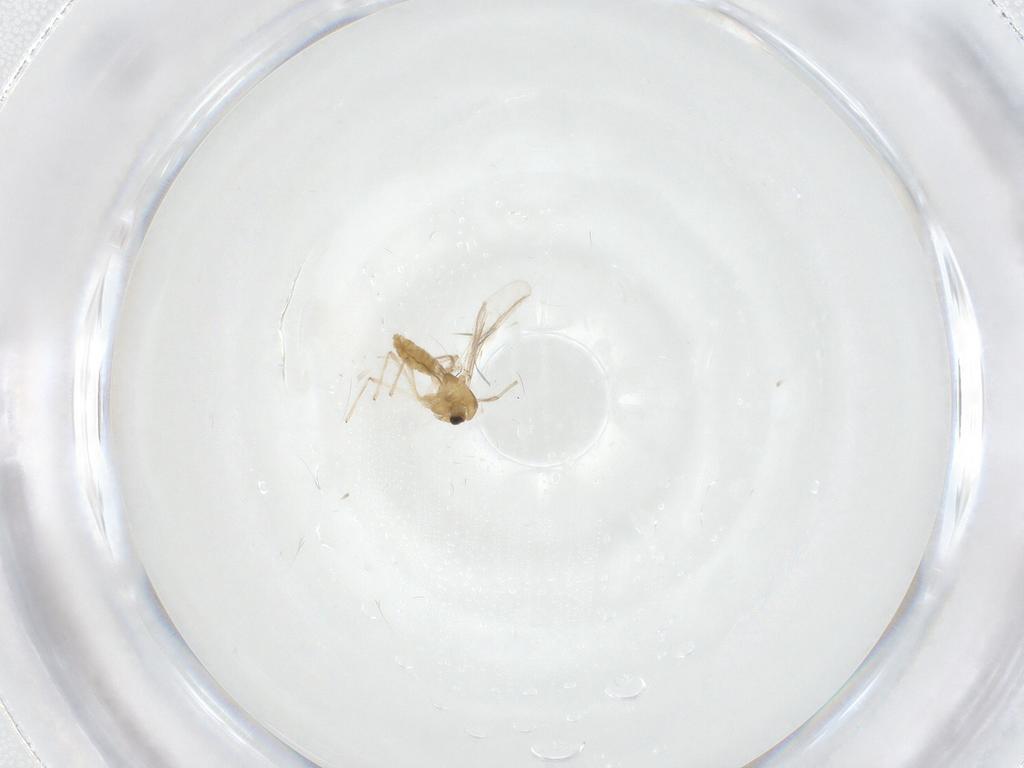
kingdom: Animalia
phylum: Arthropoda
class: Insecta
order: Diptera
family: Chironomidae
